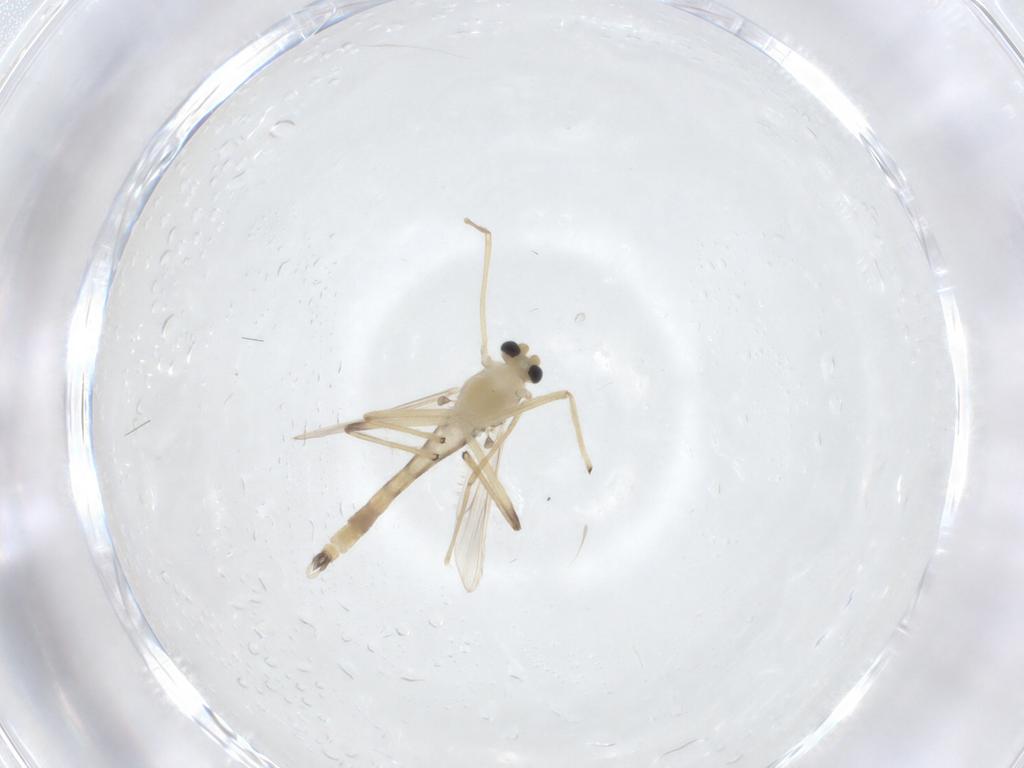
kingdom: Animalia
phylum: Arthropoda
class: Insecta
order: Diptera
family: Chironomidae
